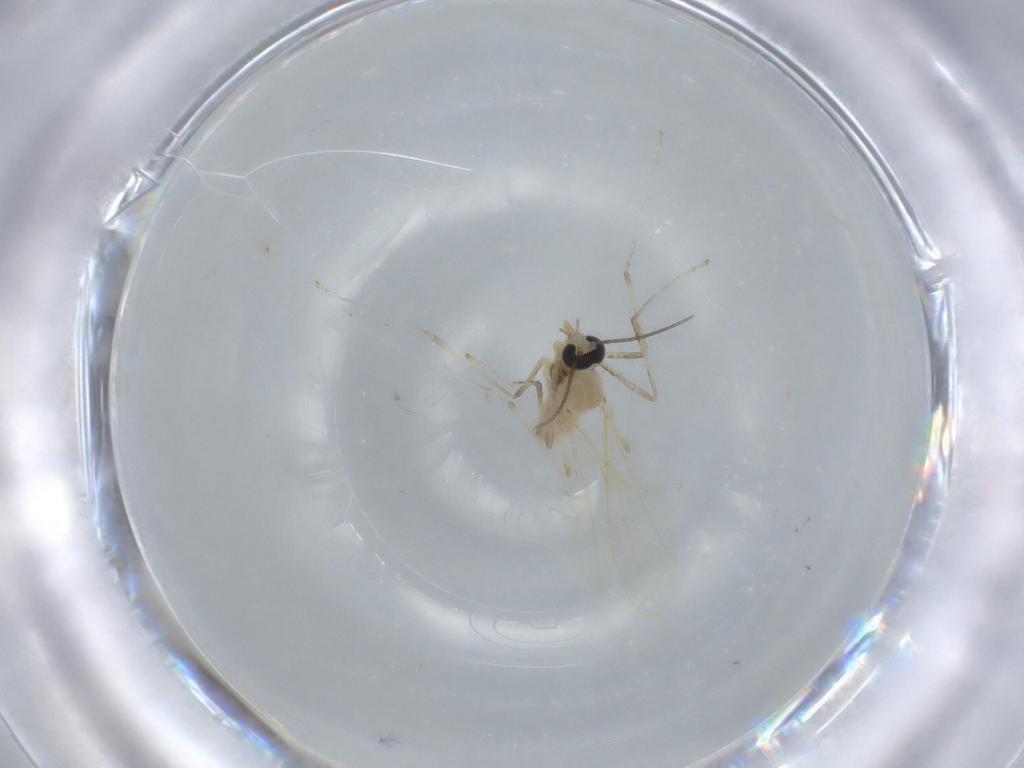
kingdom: Animalia
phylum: Arthropoda
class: Insecta
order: Diptera
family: Cecidomyiidae
